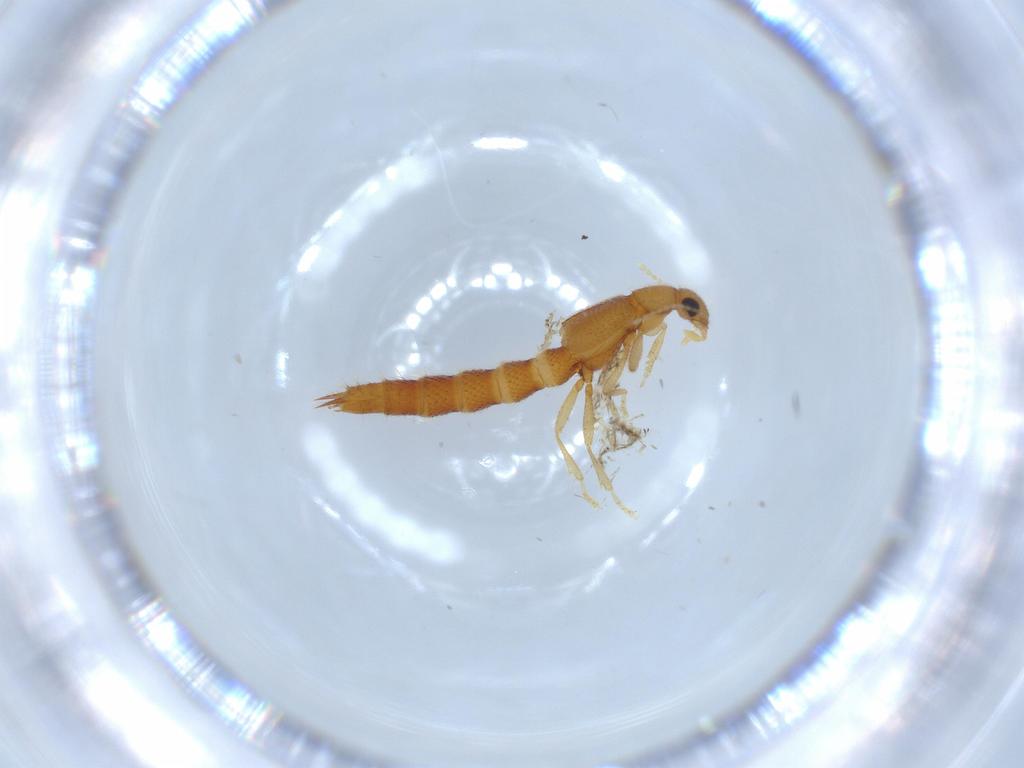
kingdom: Animalia
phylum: Arthropoda
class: Insecta
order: Coleoptera
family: Staphylinidae
